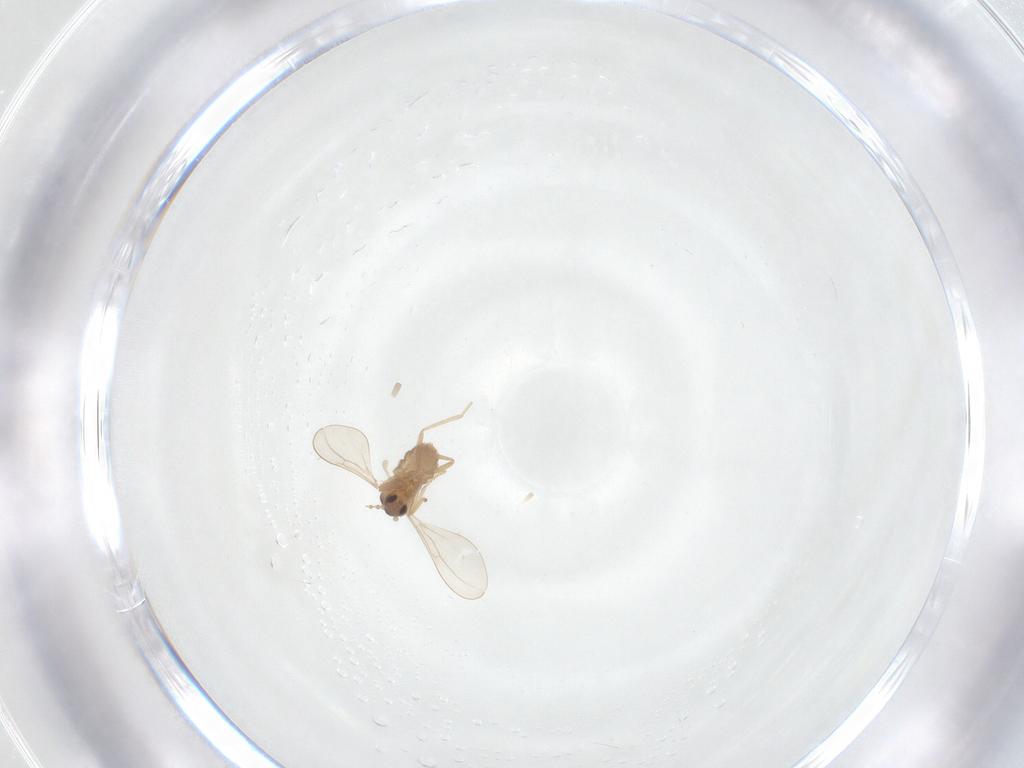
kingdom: Animalia
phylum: Arthropoda
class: Insecta
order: Diptera
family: Cecidomyiidae
